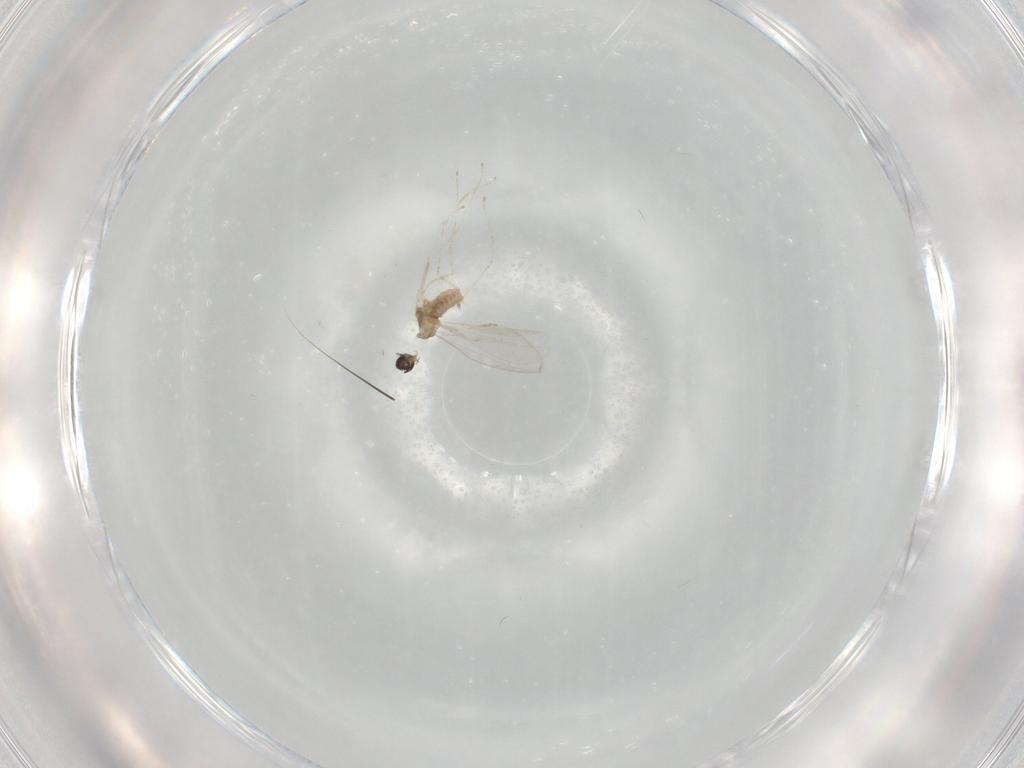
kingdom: Animalia
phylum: Arthropoda
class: Insecta
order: Diptera
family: Cecidomyiidae
